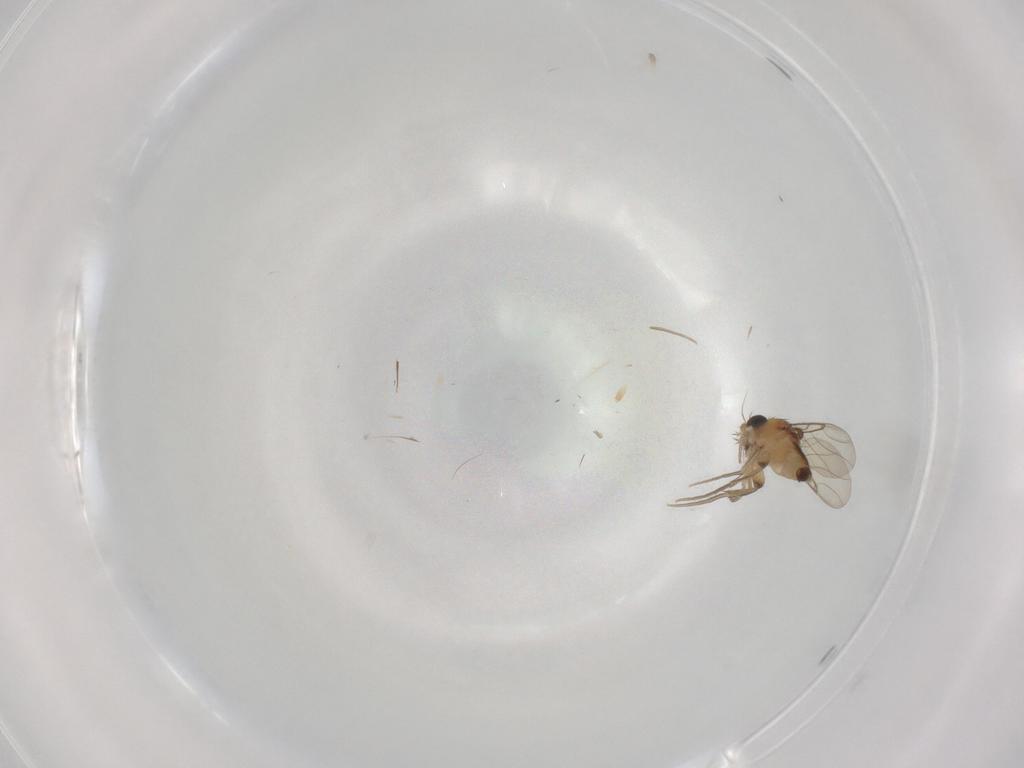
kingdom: Animalia
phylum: Arthropoda
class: Insecta
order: Diptera
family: Phoridae
